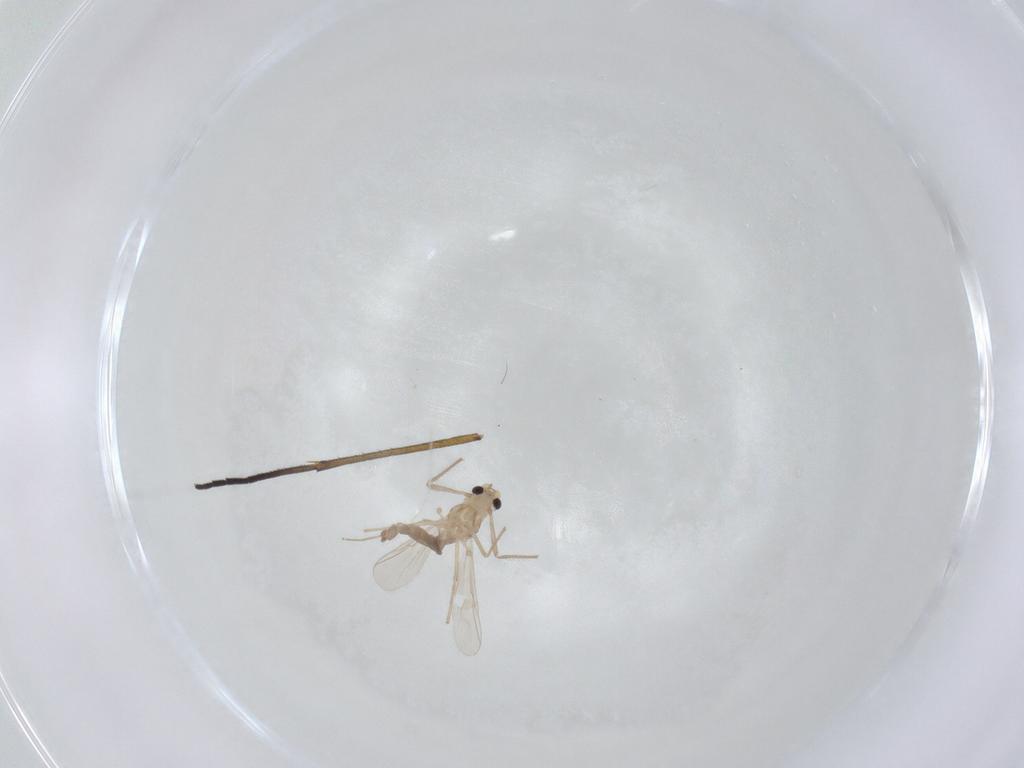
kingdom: Animalia
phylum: Arthropoda
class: Insecta
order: Diptera
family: Chironomidae
